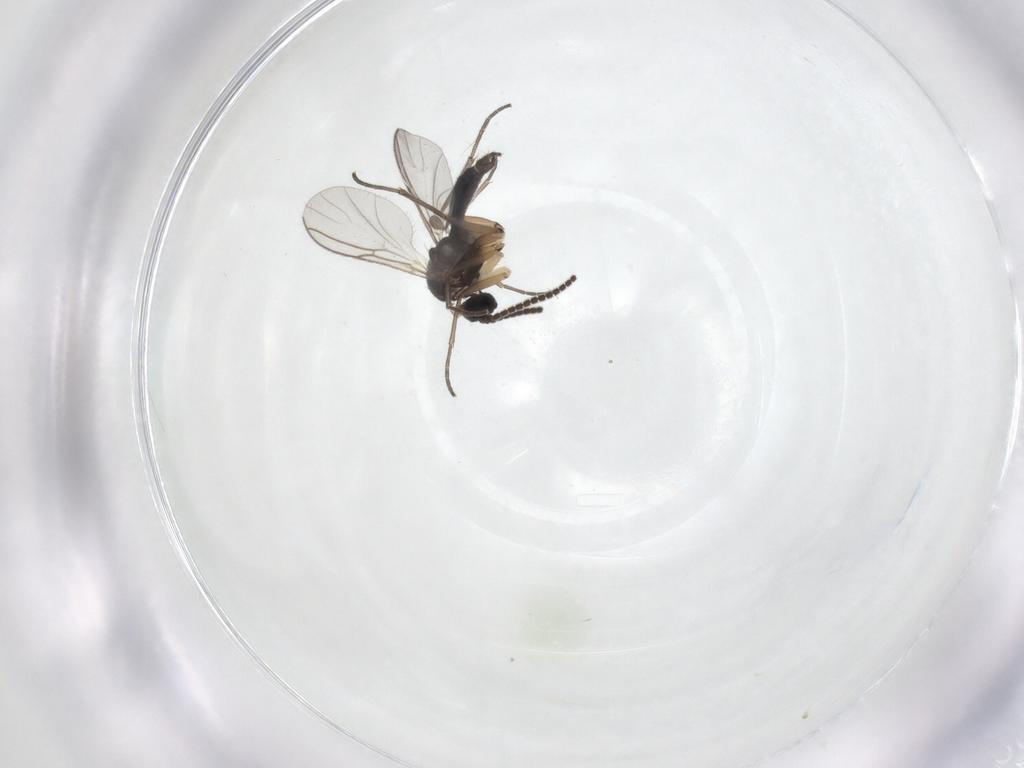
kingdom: Animalia
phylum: Arthropoda
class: Insecta
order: Diptera
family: Sciaridae
